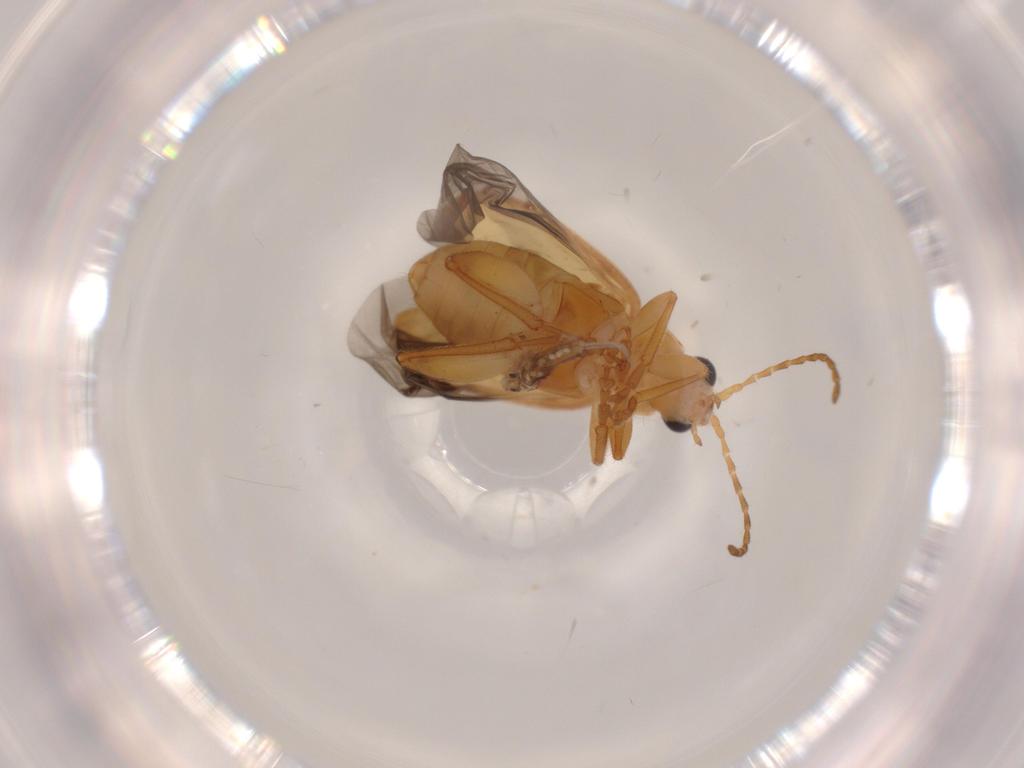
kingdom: Animalia
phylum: Arthropoda
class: Insecta
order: Coleoptera
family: Chrysomelidae
